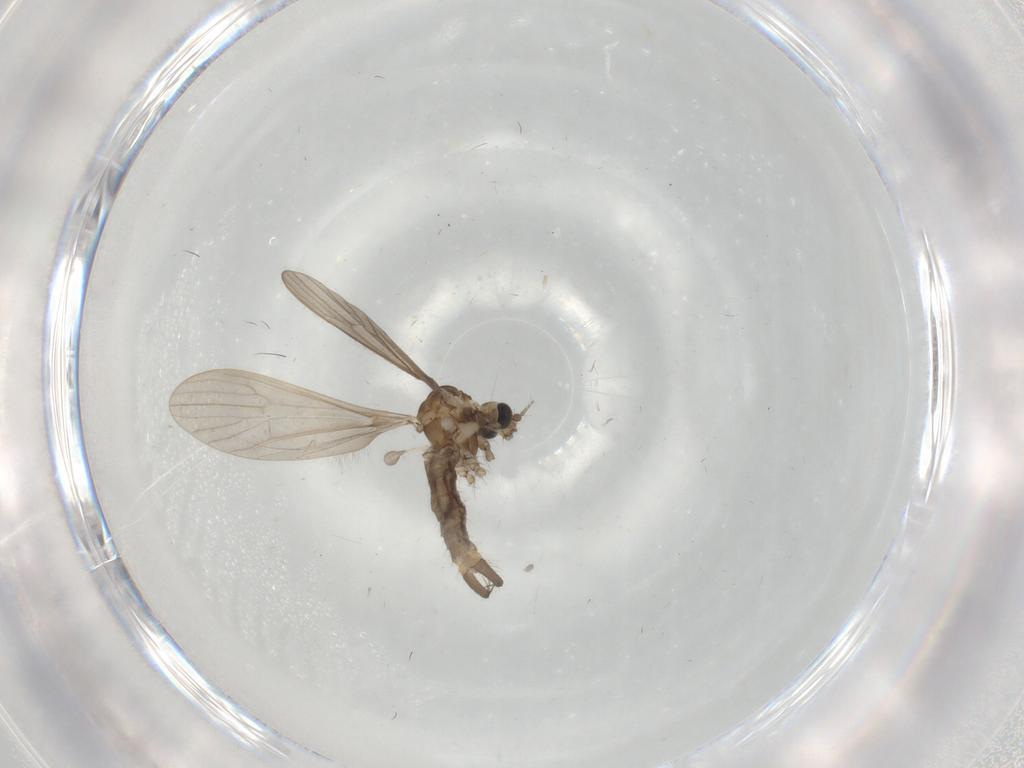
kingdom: Animalia
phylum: Arthropoda
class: Insecta
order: Diptera
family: Limoniidae
